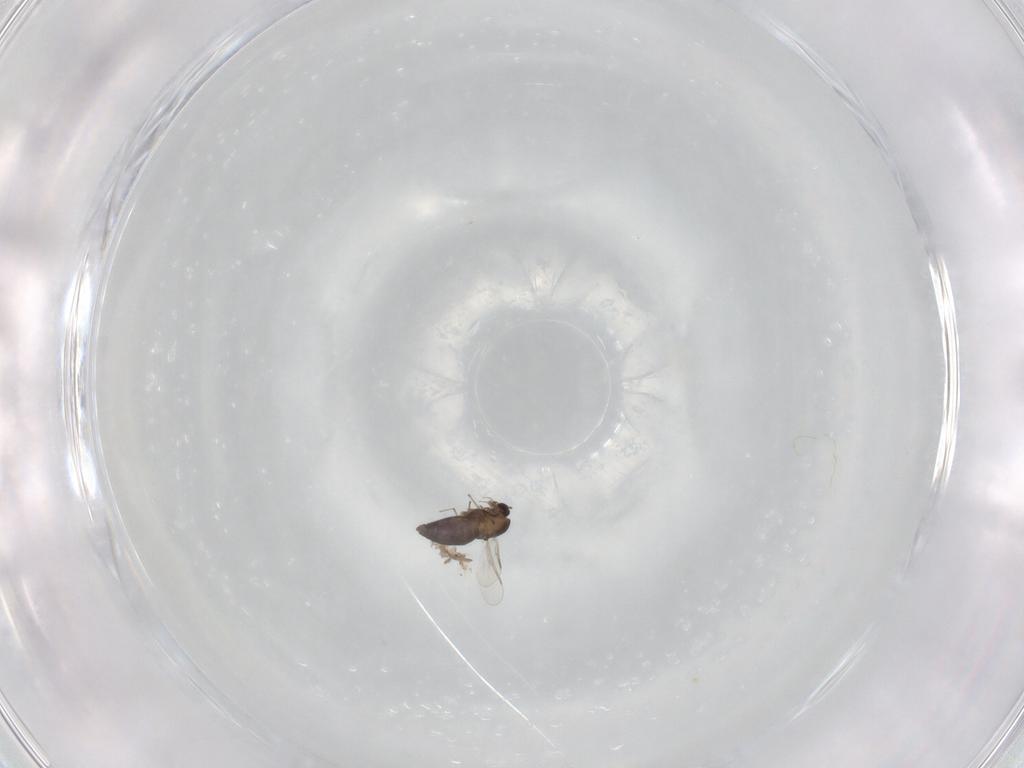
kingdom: Animalia
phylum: Arthropoda
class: Insecta
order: Diptera
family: Chironomidae
